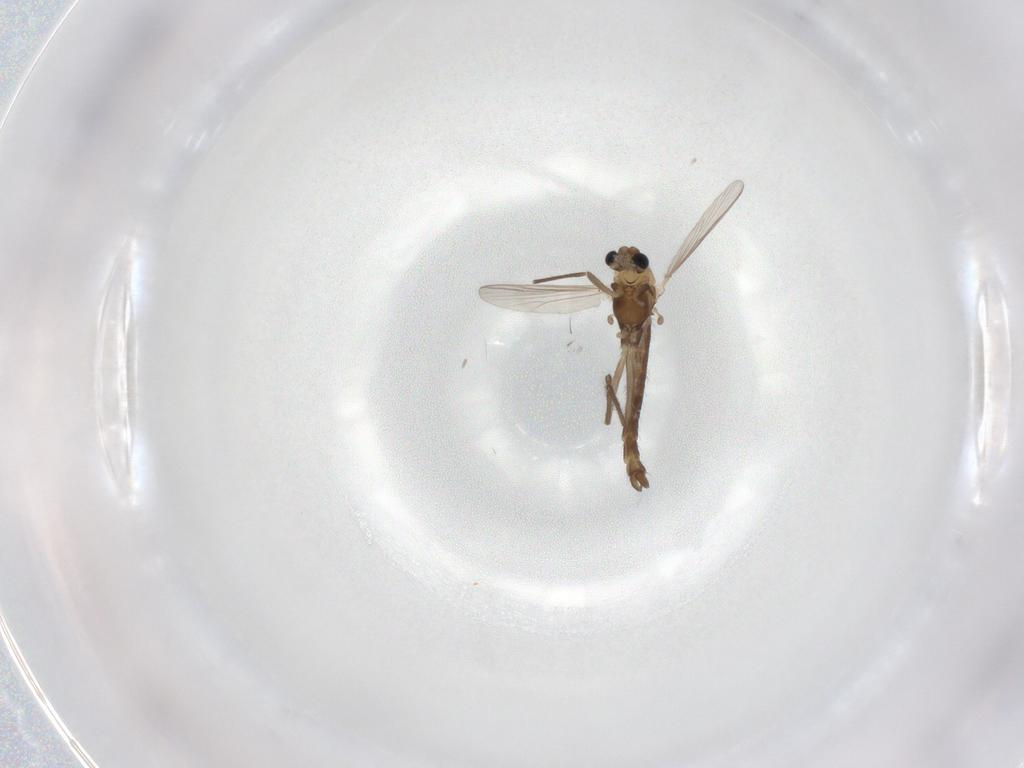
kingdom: Animalia
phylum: Arthropoda
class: Insecta
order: Diptera
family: Chironomidae
